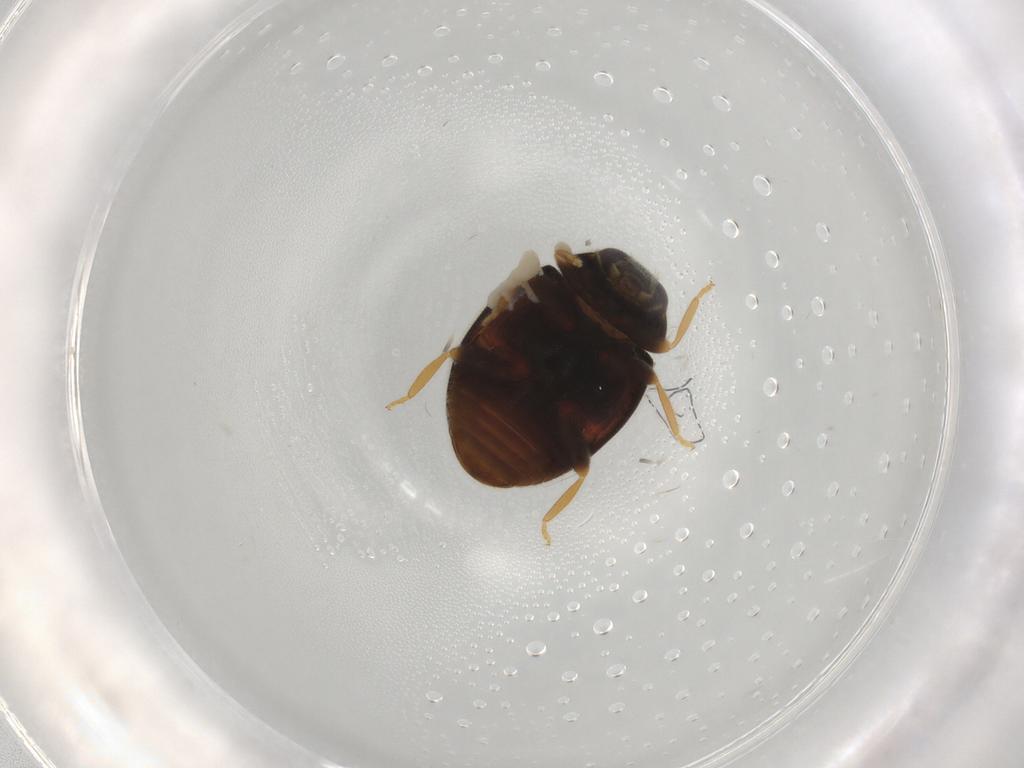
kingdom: Animalia
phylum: Arthropoda
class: Insecta
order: Coleoptera
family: Coccinellidae
